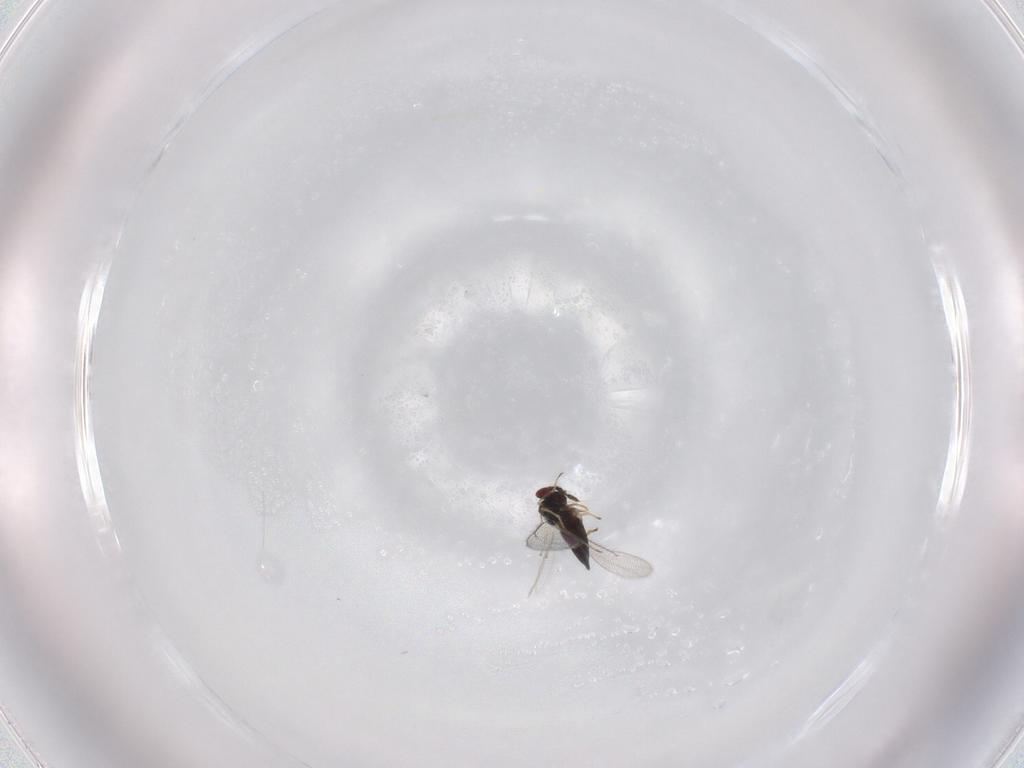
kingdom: Animalia
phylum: Arthropoda
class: Insecta
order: Hymenoptera
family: Eulophidae
